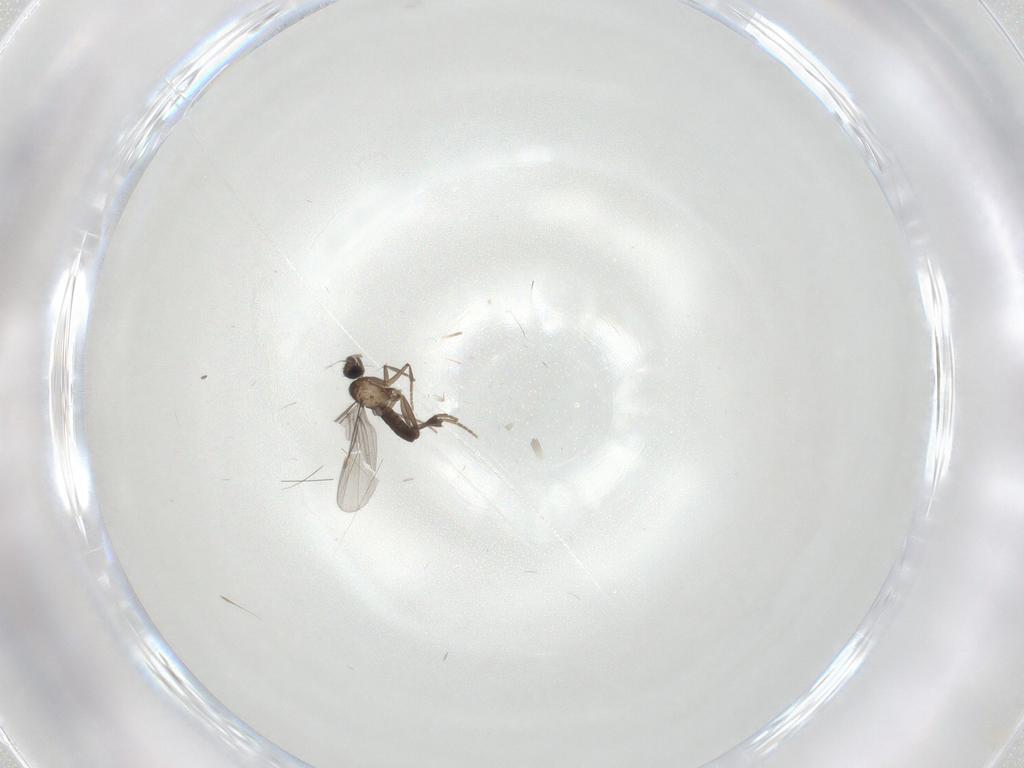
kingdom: Animalia
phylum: Arthropoda
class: Insecta
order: Diptera
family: Phoridae
